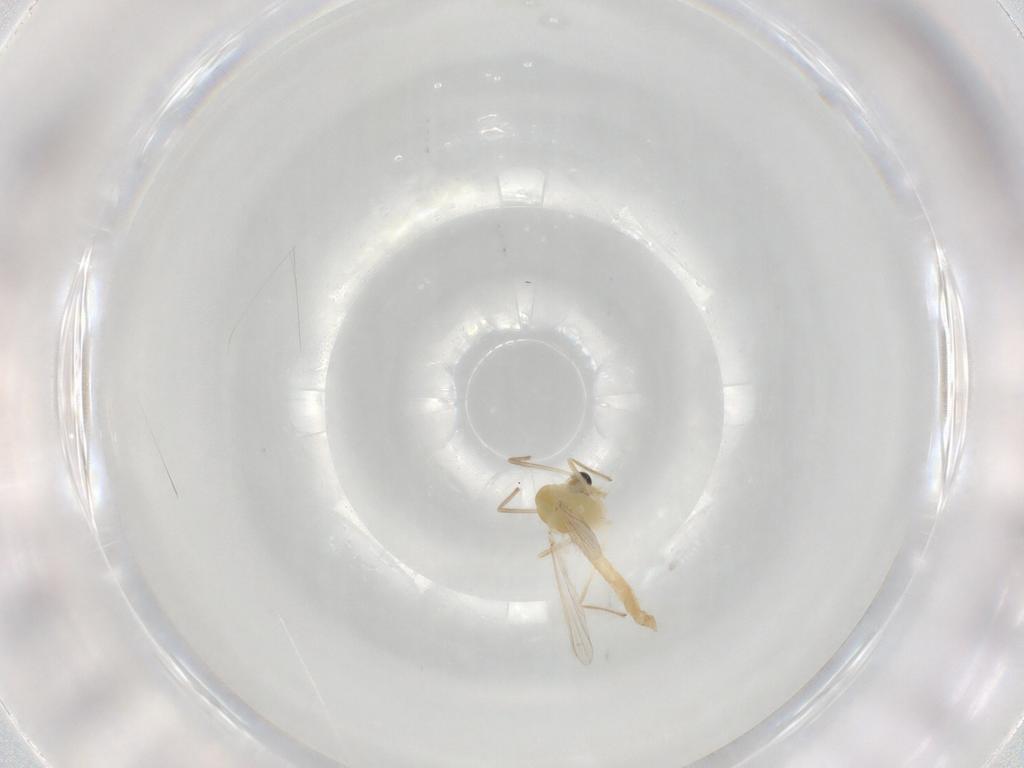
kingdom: Animalia
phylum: Arthropoda
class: Insecta
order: Diptera
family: Chironomidae
